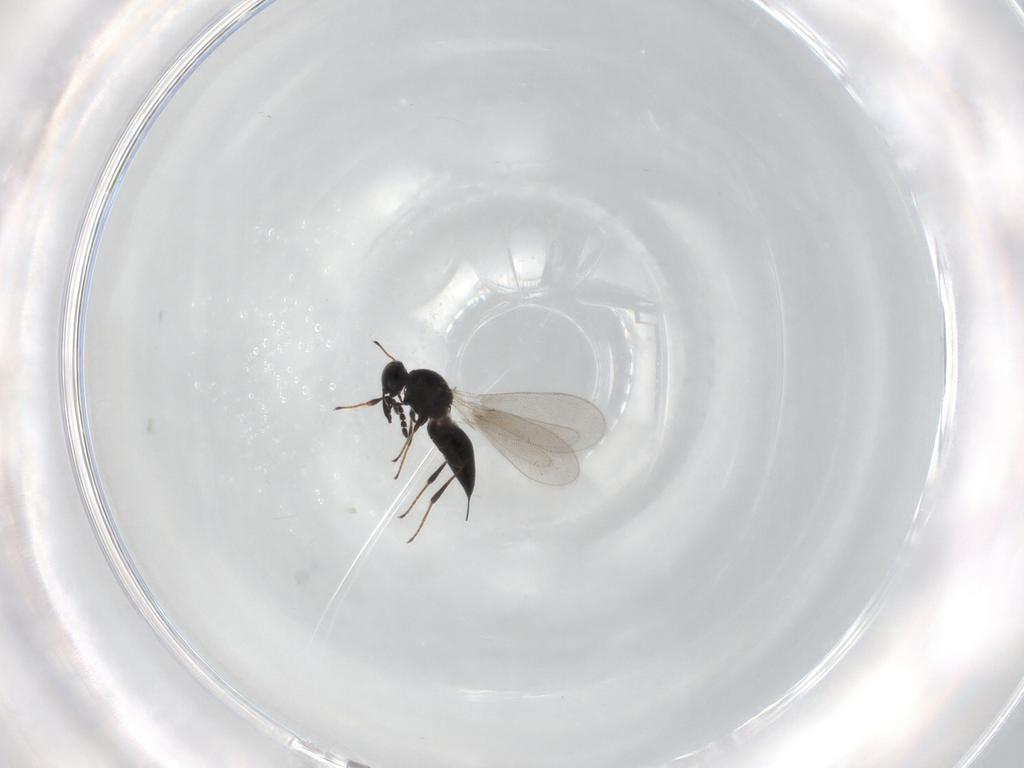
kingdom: Animalia
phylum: Arthropoda
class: Insecta
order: Hymenoptera
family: Platygastridae
